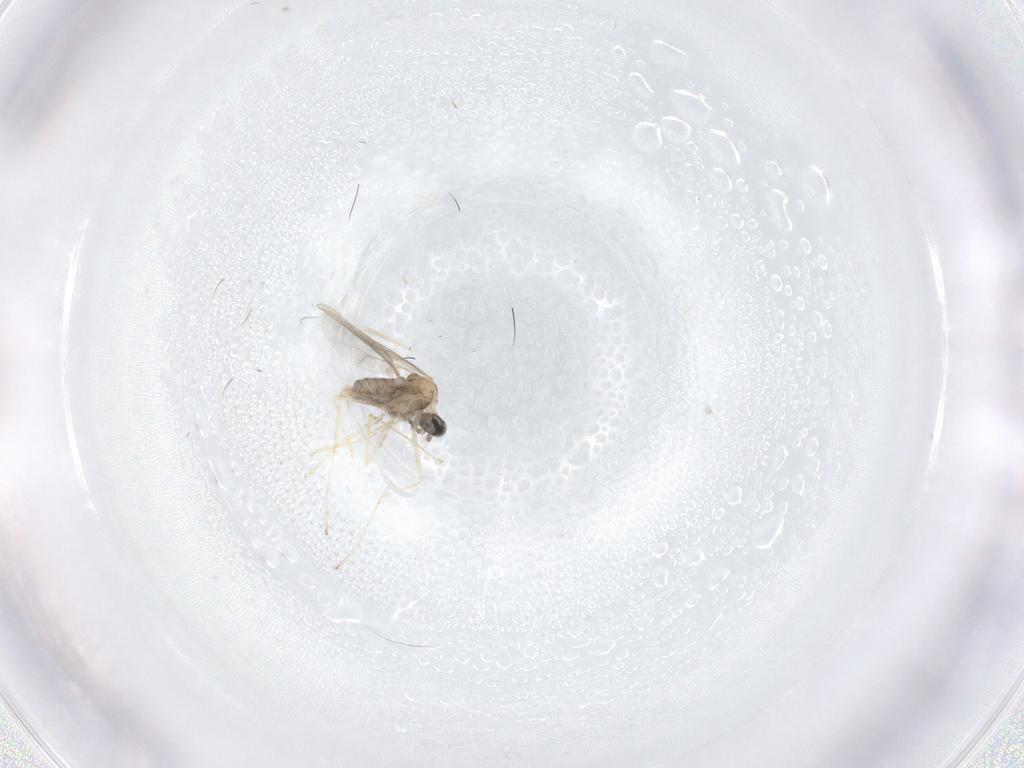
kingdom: Animalia
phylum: Arthropoda
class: Insecta
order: Diptera
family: Cecidomyiidae
